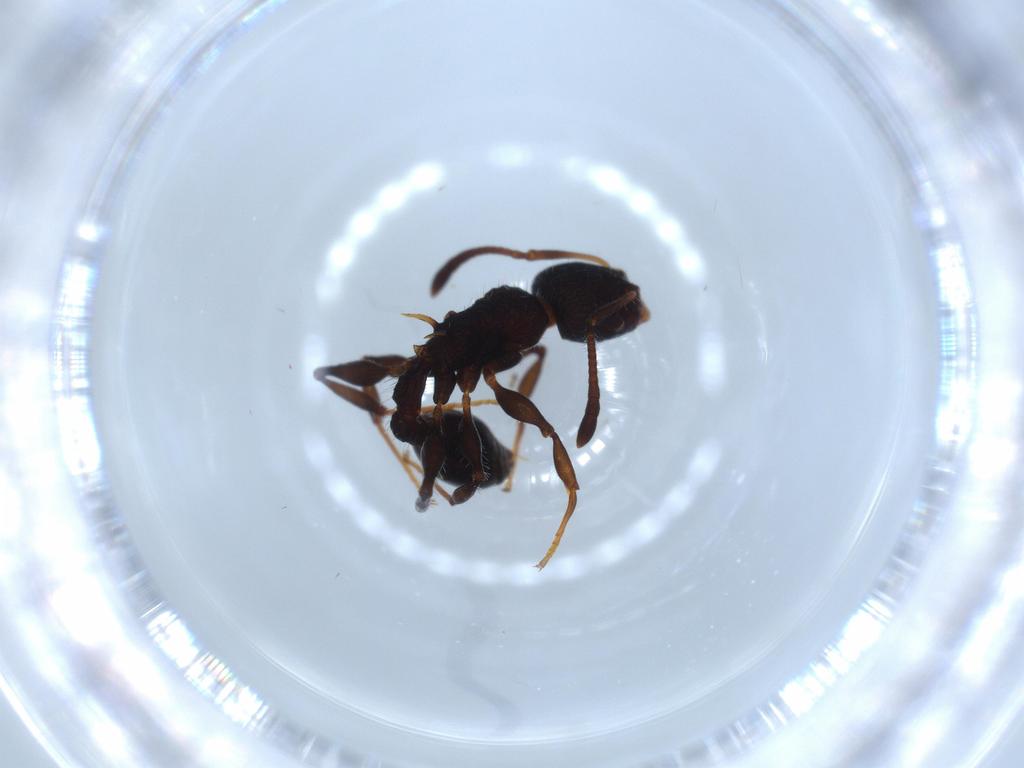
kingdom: Animalia
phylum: Arthropoda
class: Insecta
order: Hymenoptera
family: Formicidae
